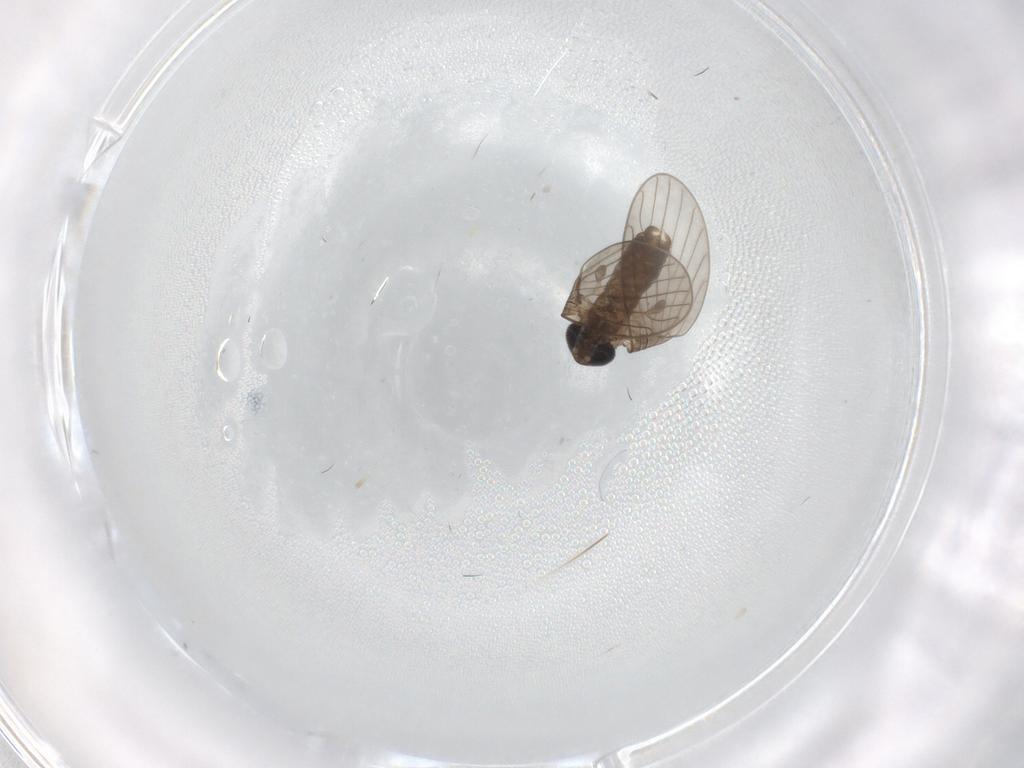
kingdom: Animalia
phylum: Arthropoda
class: Insecta
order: Diptera
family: Psychodidae
